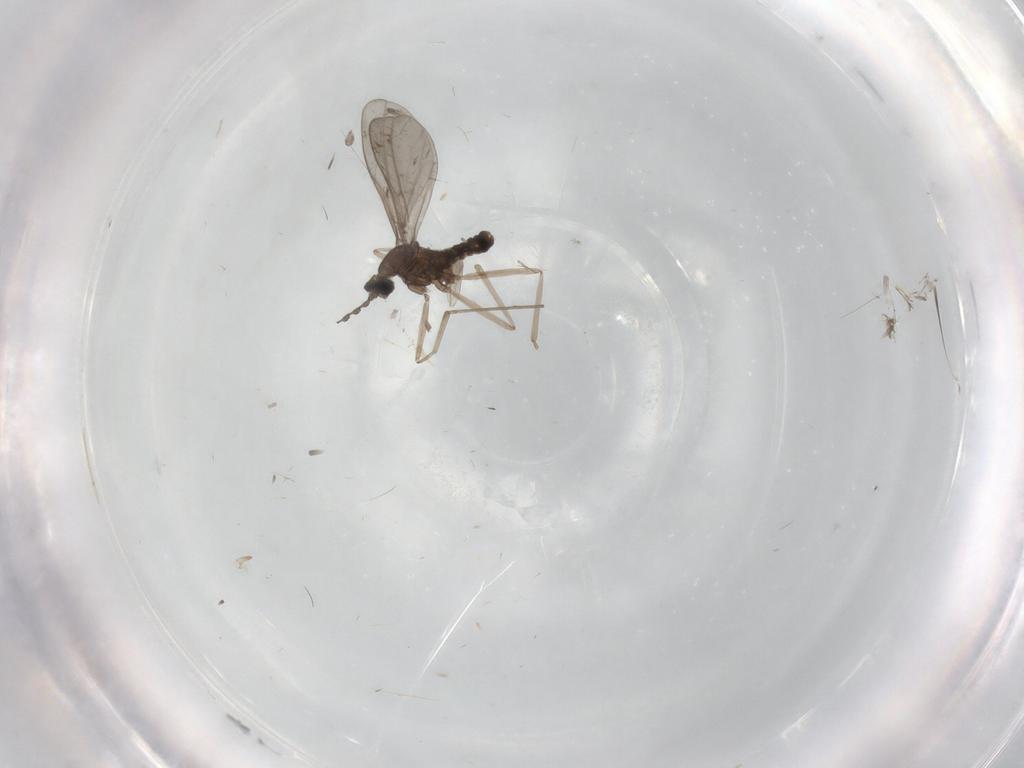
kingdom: Animalia
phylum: Arthropoda
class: Insecta
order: Diptera
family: Cecidomyiidae
